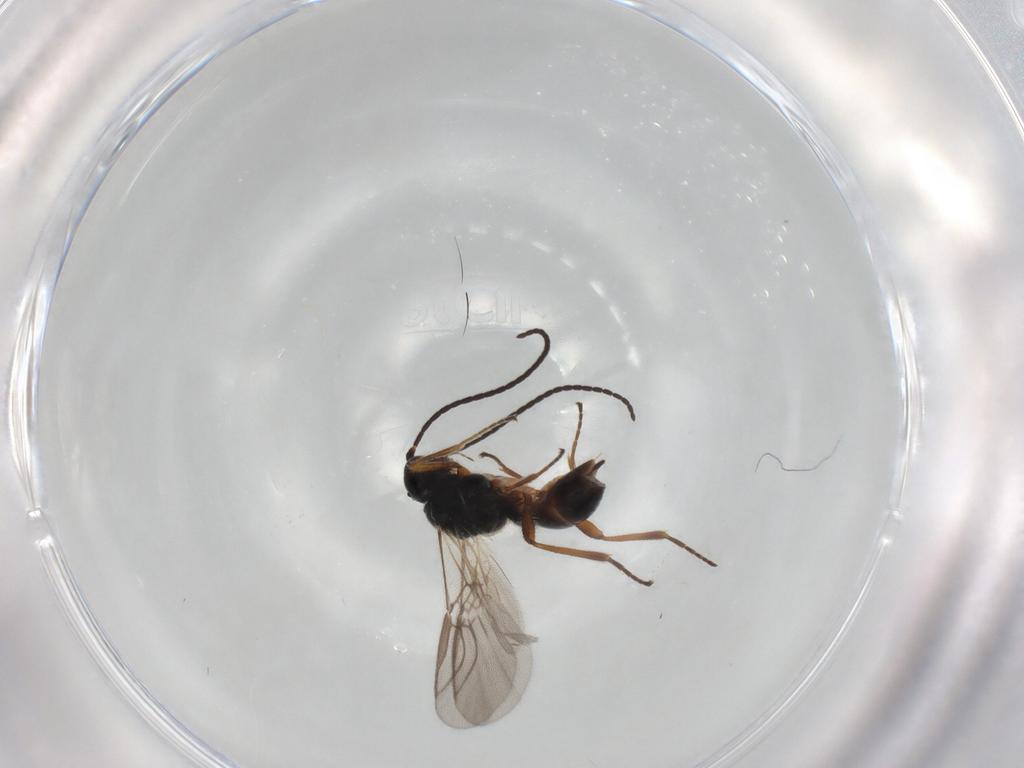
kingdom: Animalia
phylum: Arthropoda
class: Insecta
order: Hymenoptera
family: Braconidae
